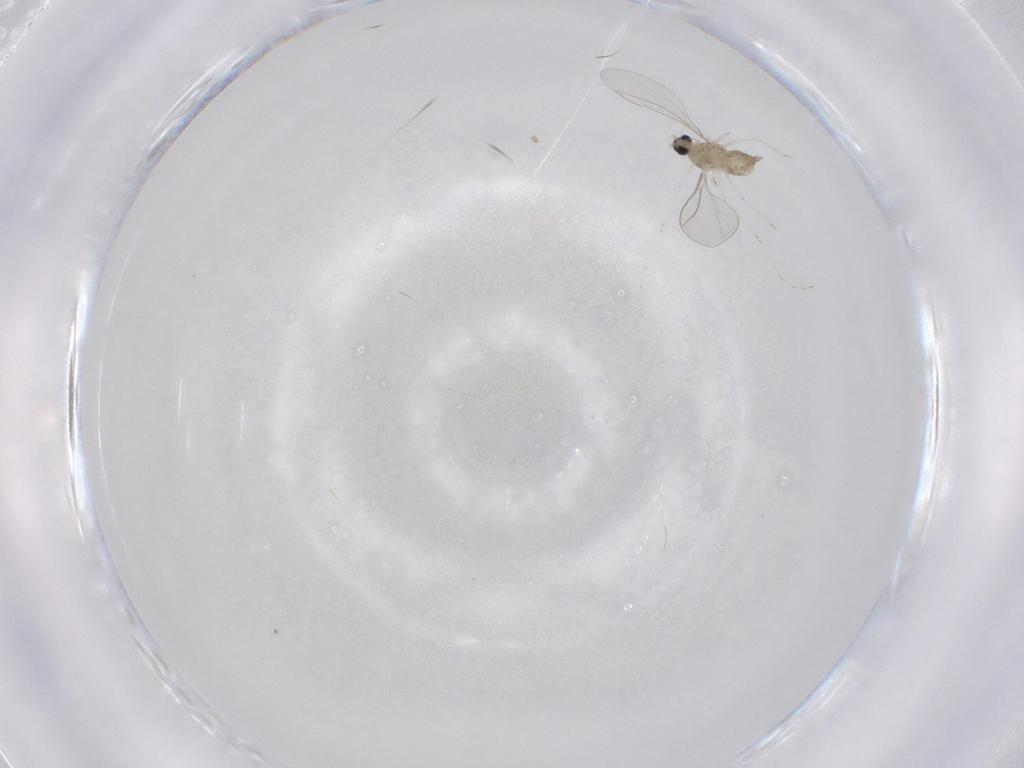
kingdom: Animalia
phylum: Arthropoda
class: Insecta
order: Diptera
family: Cecidomyiidae
